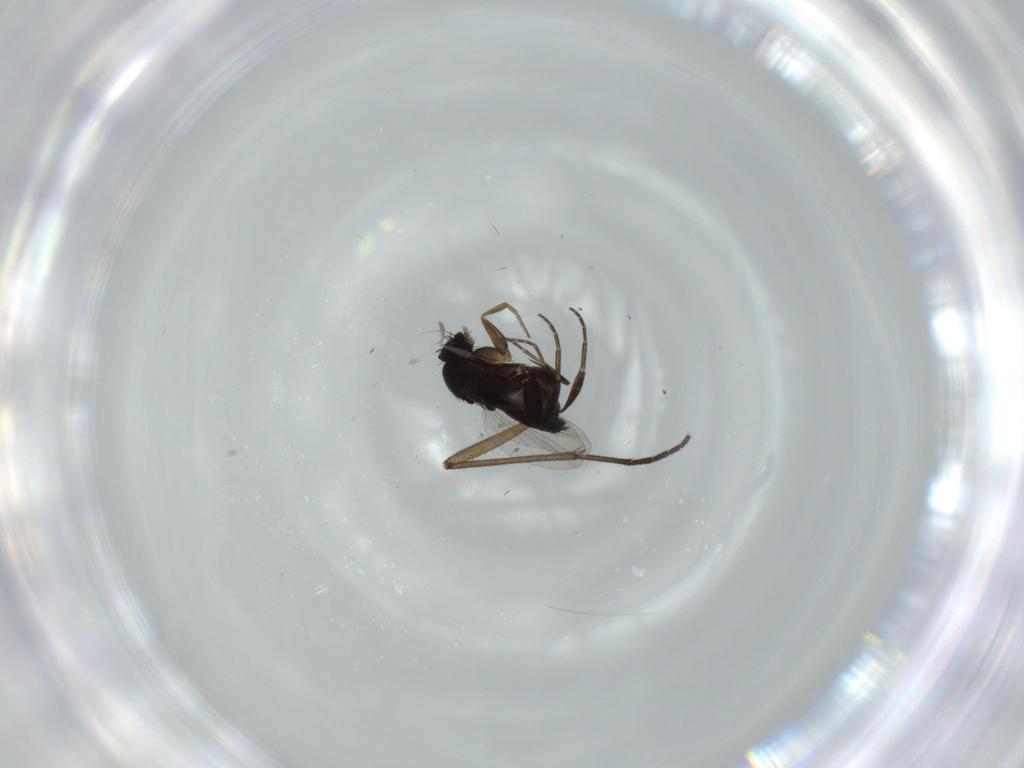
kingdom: Animalia
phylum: Arthropoda
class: Insecta
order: Diptera
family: Sciaridae
